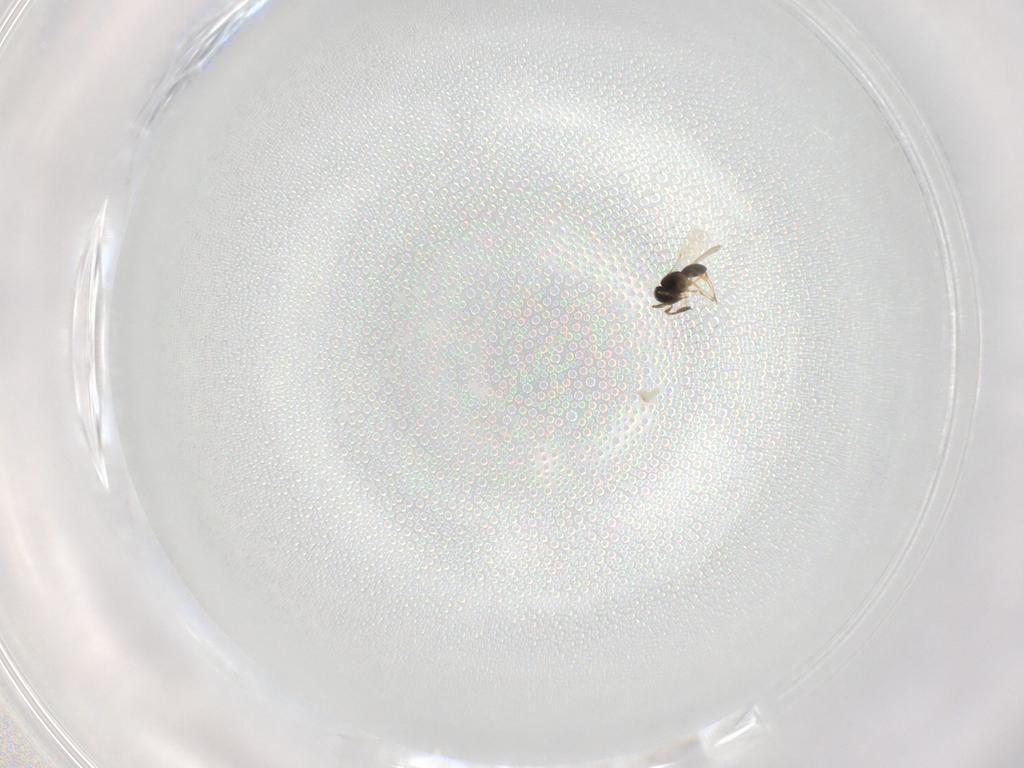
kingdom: Animalia
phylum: Arthropoda
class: Insecta
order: Hymenoptera
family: Scelionidae
